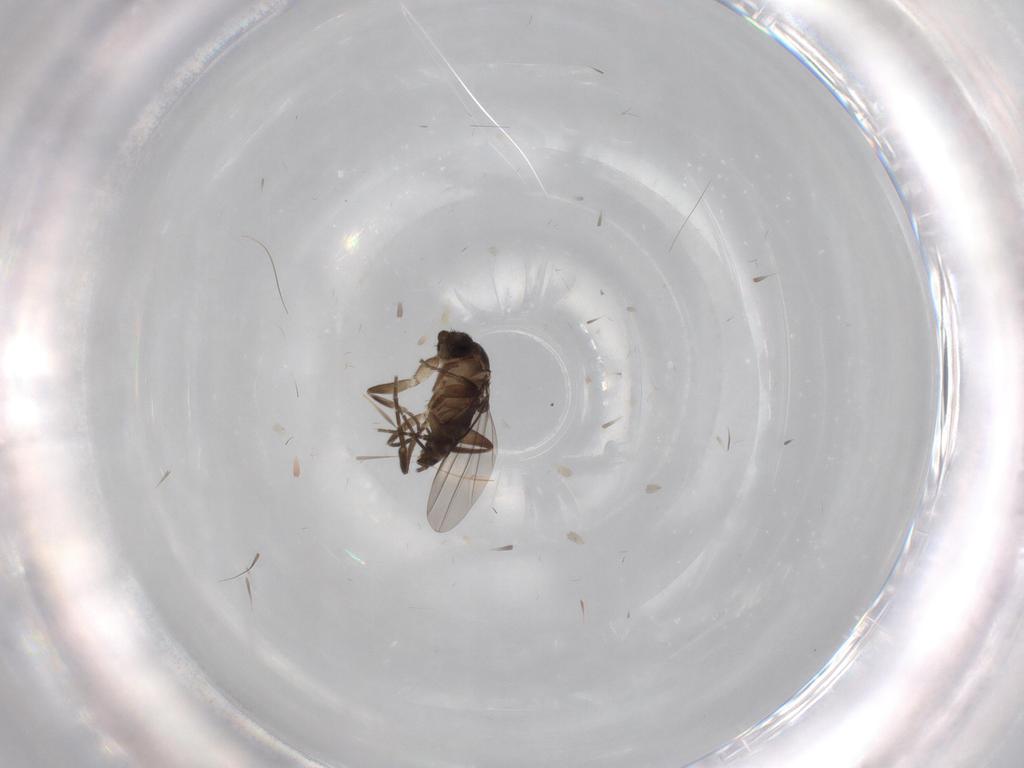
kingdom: Animalia
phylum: Arthropoda
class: Insecta
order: Diptera
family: Phoridae
